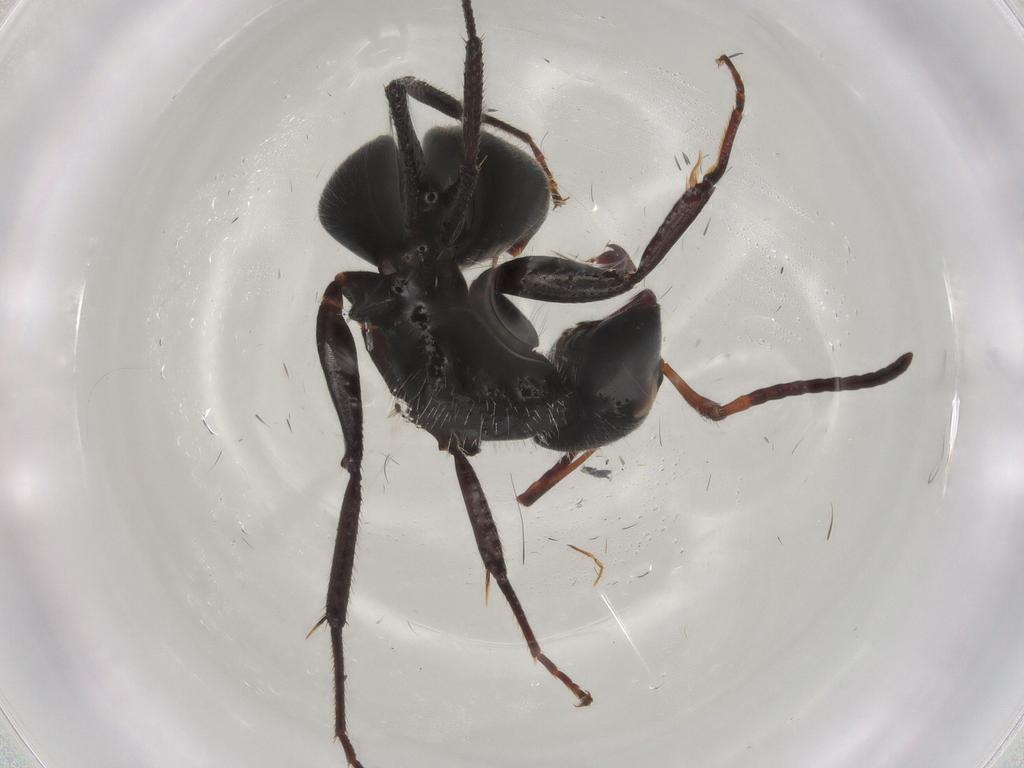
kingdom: Animalia
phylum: Arthropoda
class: Insecta
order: Hymenoptera
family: Formicidae
